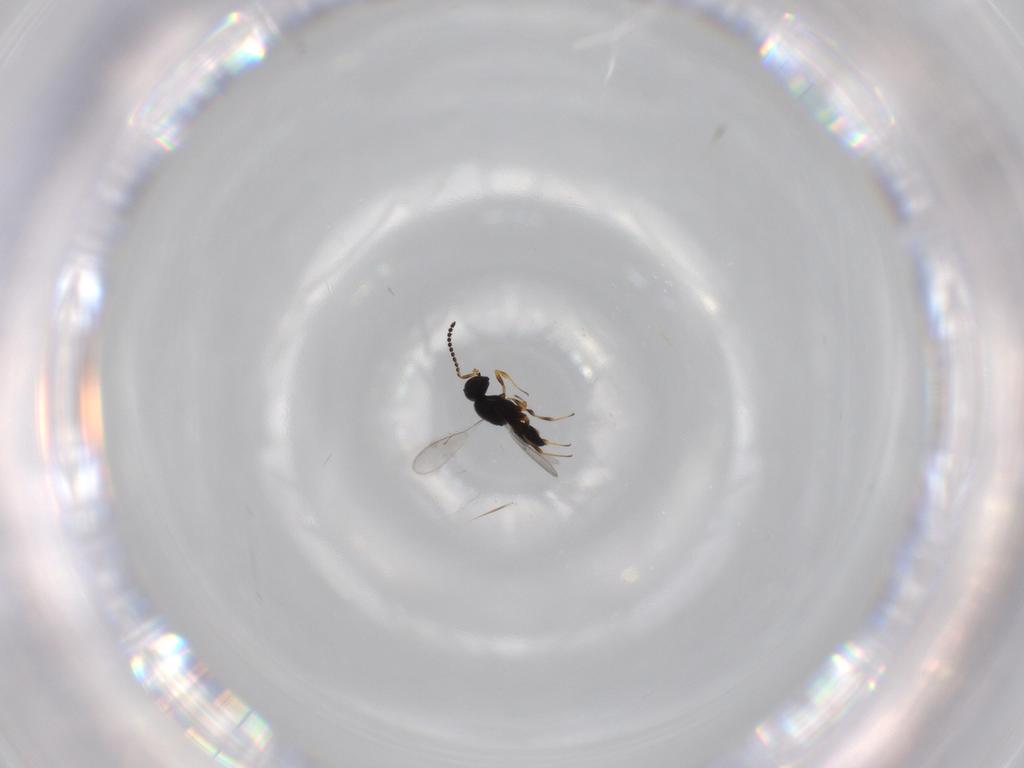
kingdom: Animalia
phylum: Arthropoda
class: Insecta
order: Hymenoptera
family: Scelionidae
